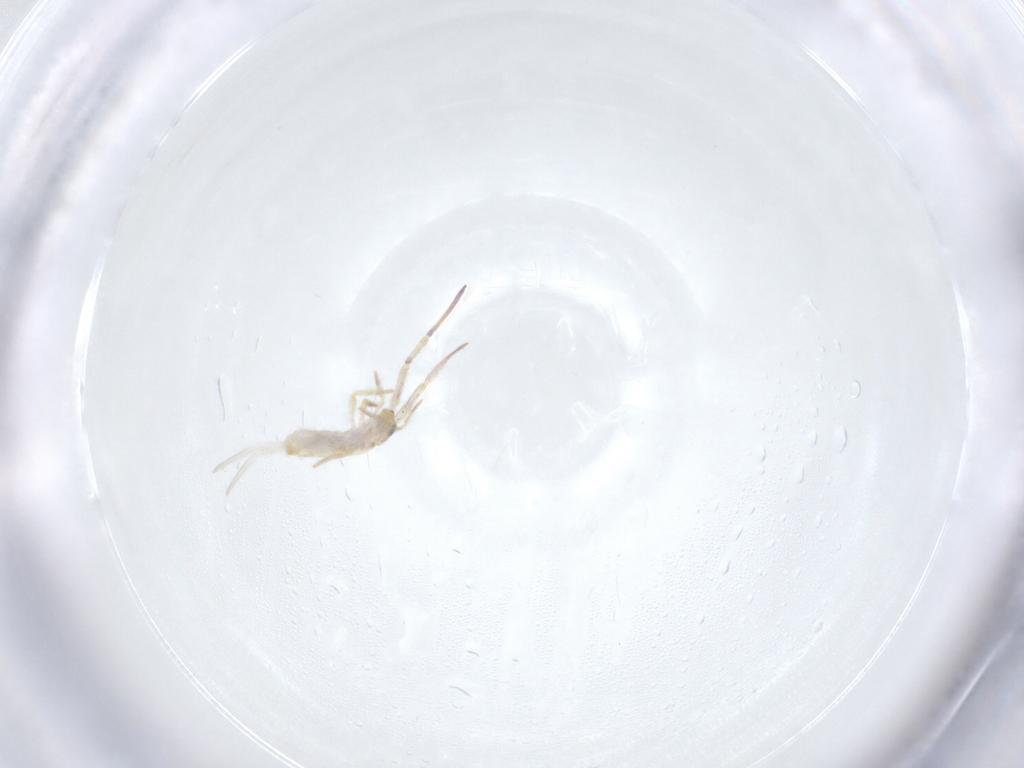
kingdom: Animalia
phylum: Arthropoda
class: Collembola
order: Entomobryomorpha
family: Entomobryidae
